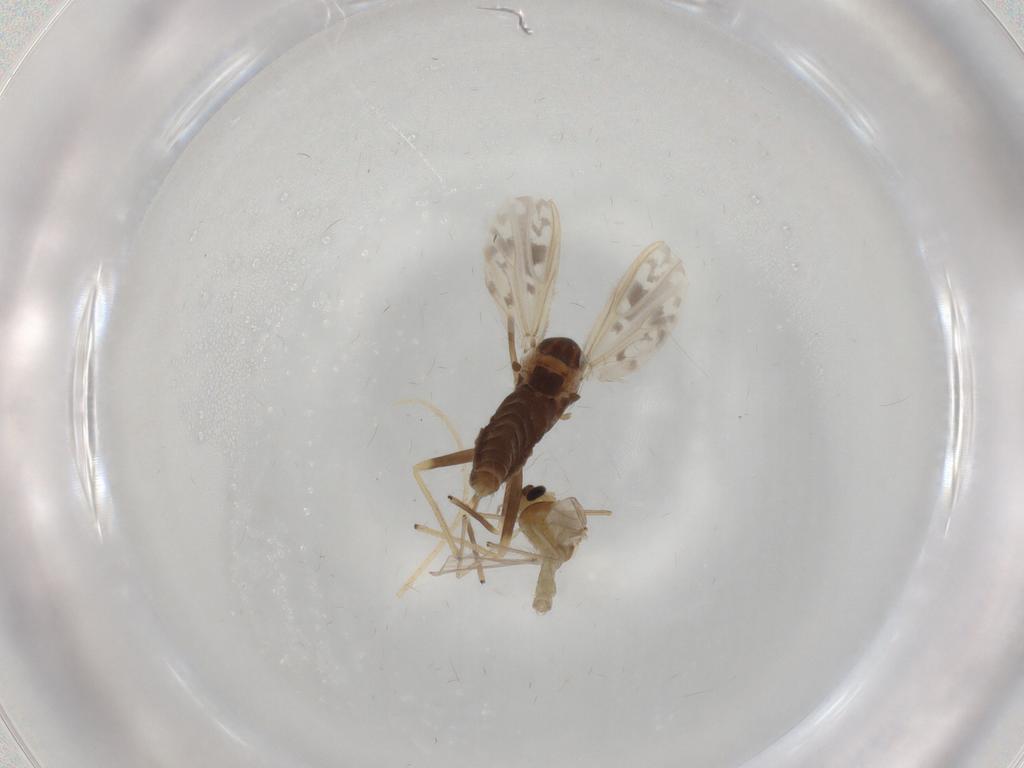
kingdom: Animalia
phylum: Arthropoda
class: Insecta
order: Diptera
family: Chironomidae
